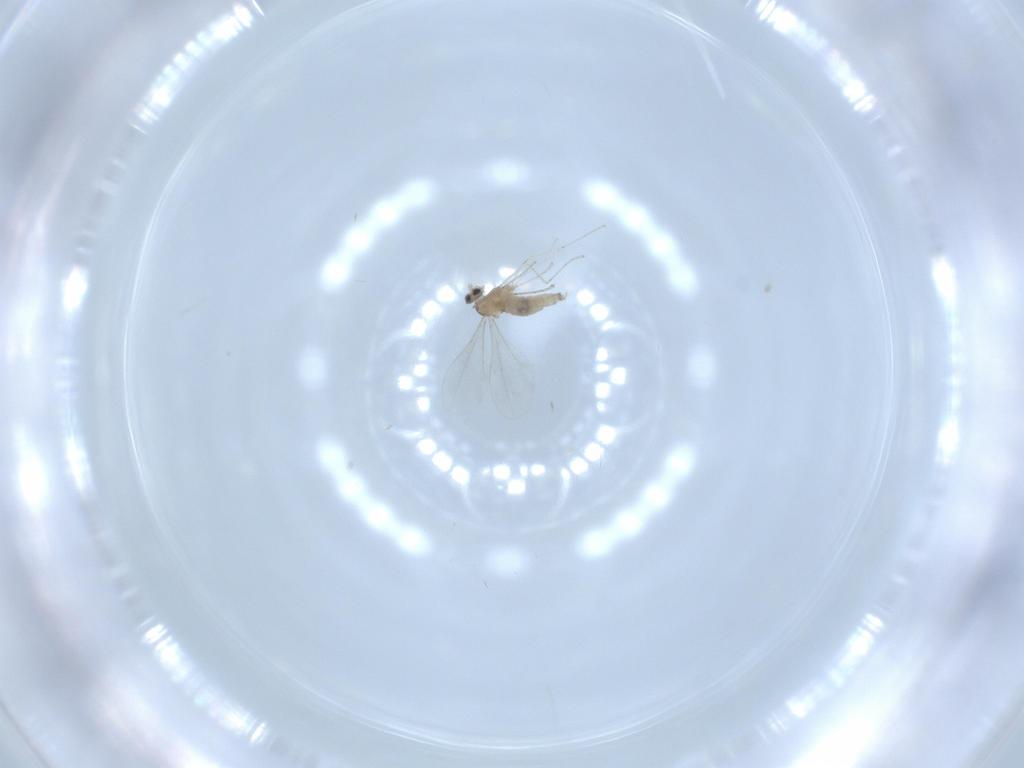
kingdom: Animalia
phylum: Arthropoda
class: Insecta
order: Diptera
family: Cecidomyiidae
